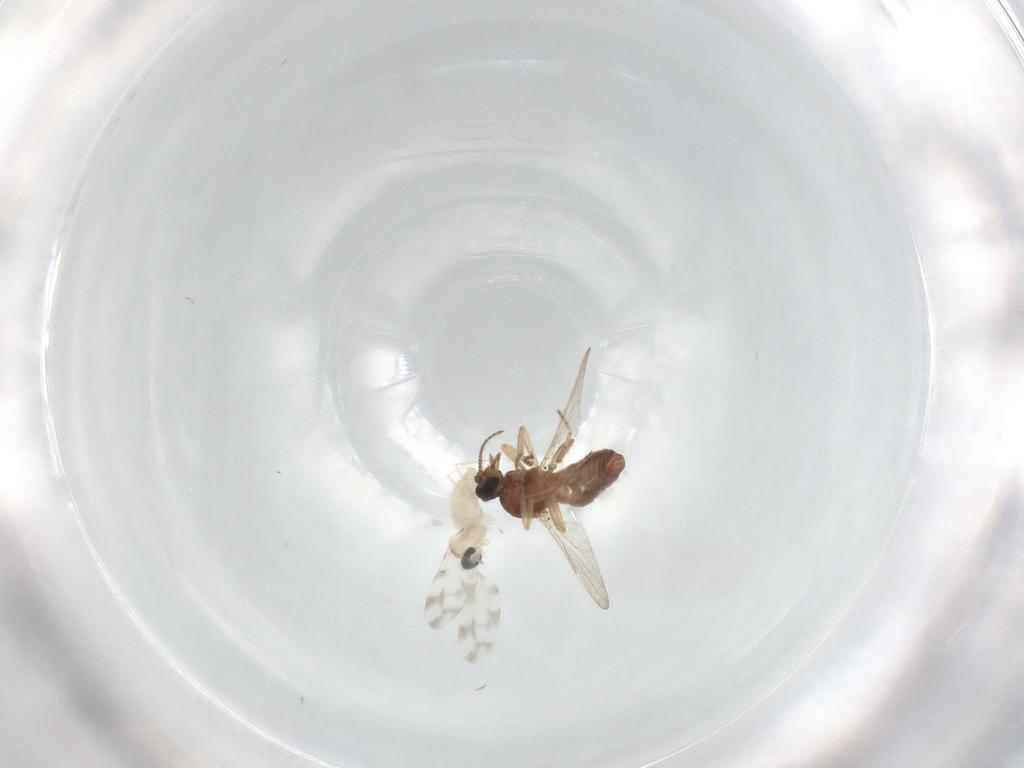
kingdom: Animalia
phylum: Arthropoda
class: Insecta
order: Diptera
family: Ceratopogonidae
